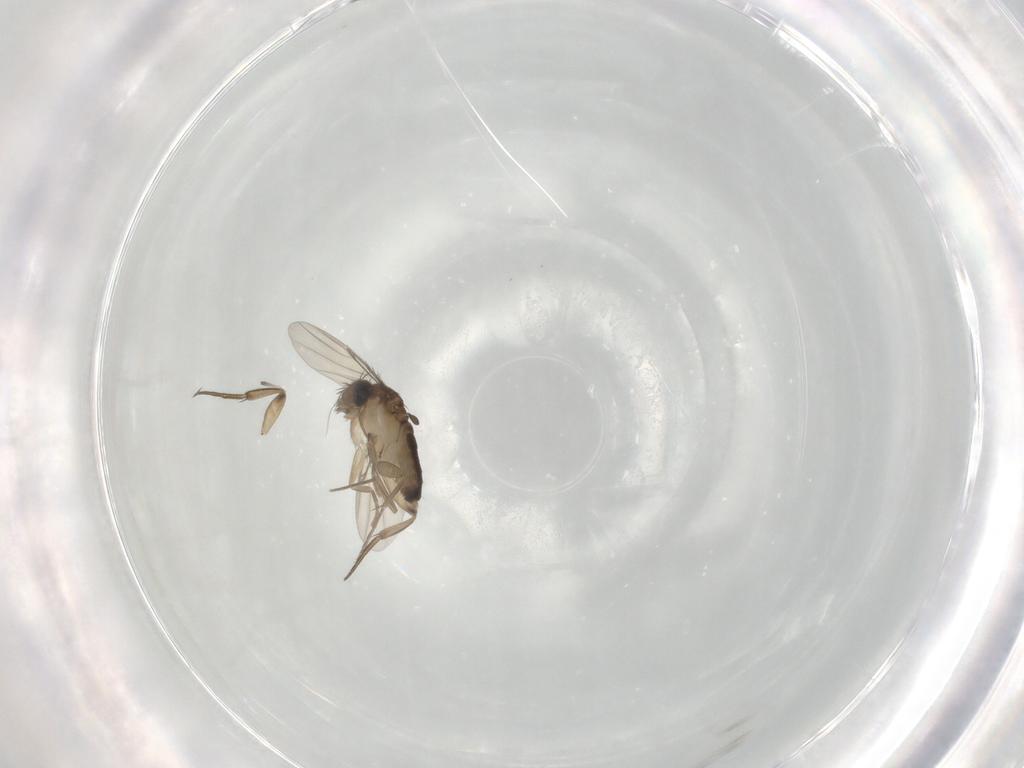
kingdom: Animalia
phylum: Arthropoda
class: Insecta
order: Diptera
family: Phoridae
